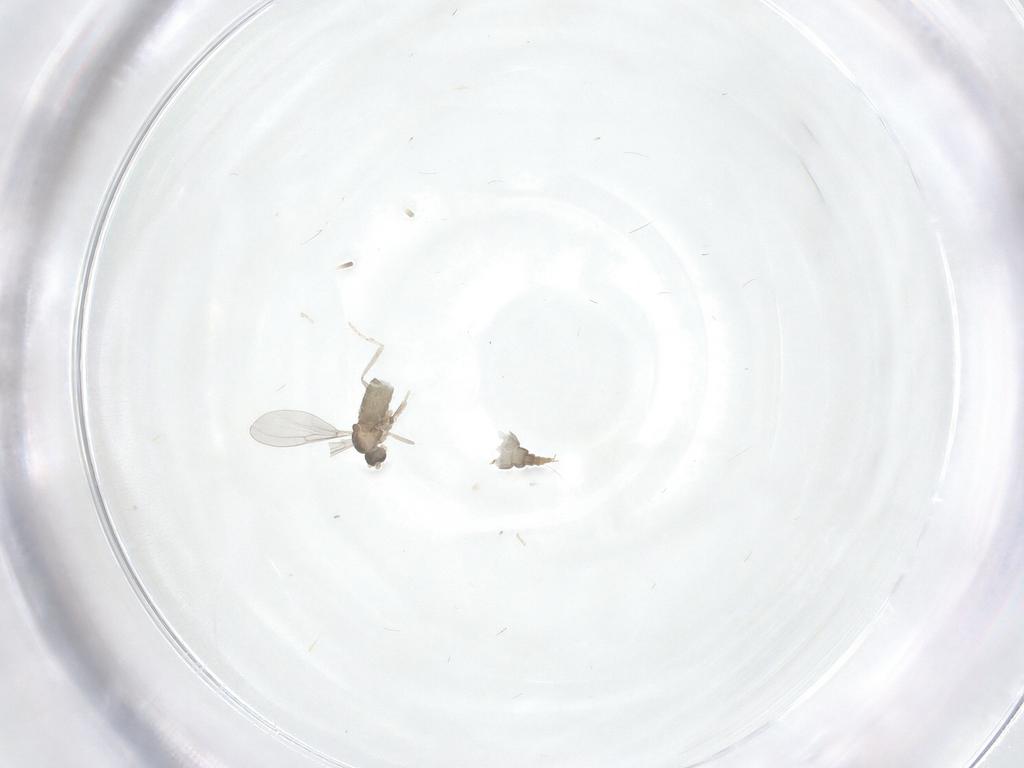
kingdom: Animalia
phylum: Arthropoda
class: Insecta
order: Diptera
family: Cecidomyiidae
